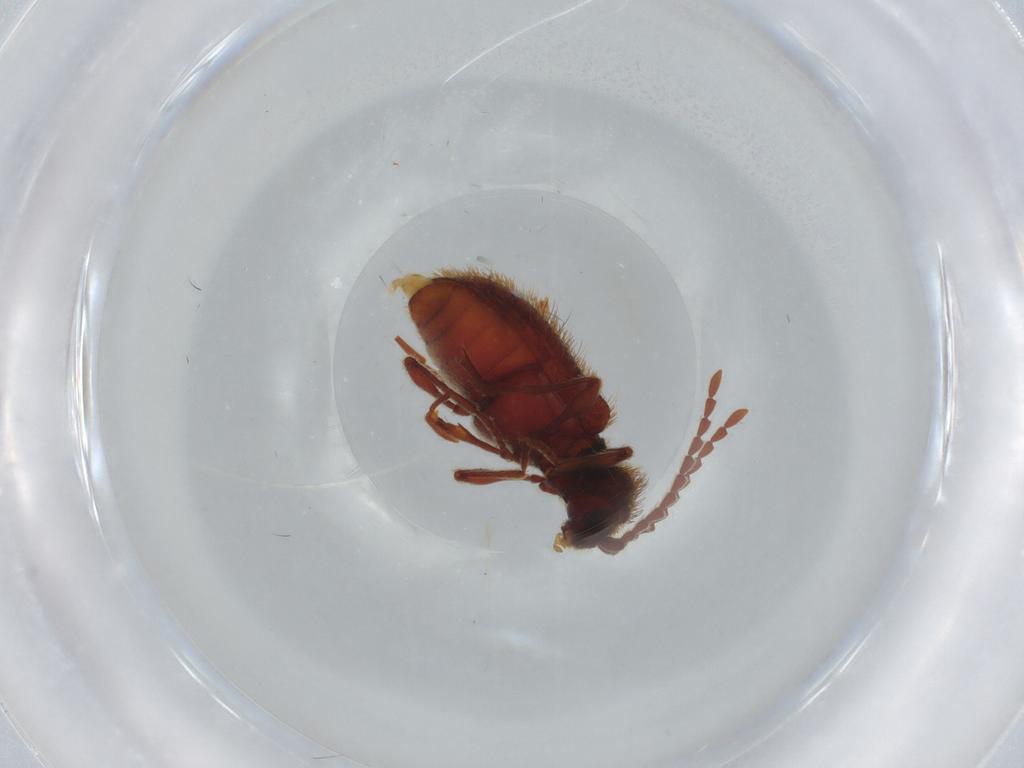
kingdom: Animalia
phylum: Arthropoda
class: Insecta
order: Coleoptera
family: Ptinidae
